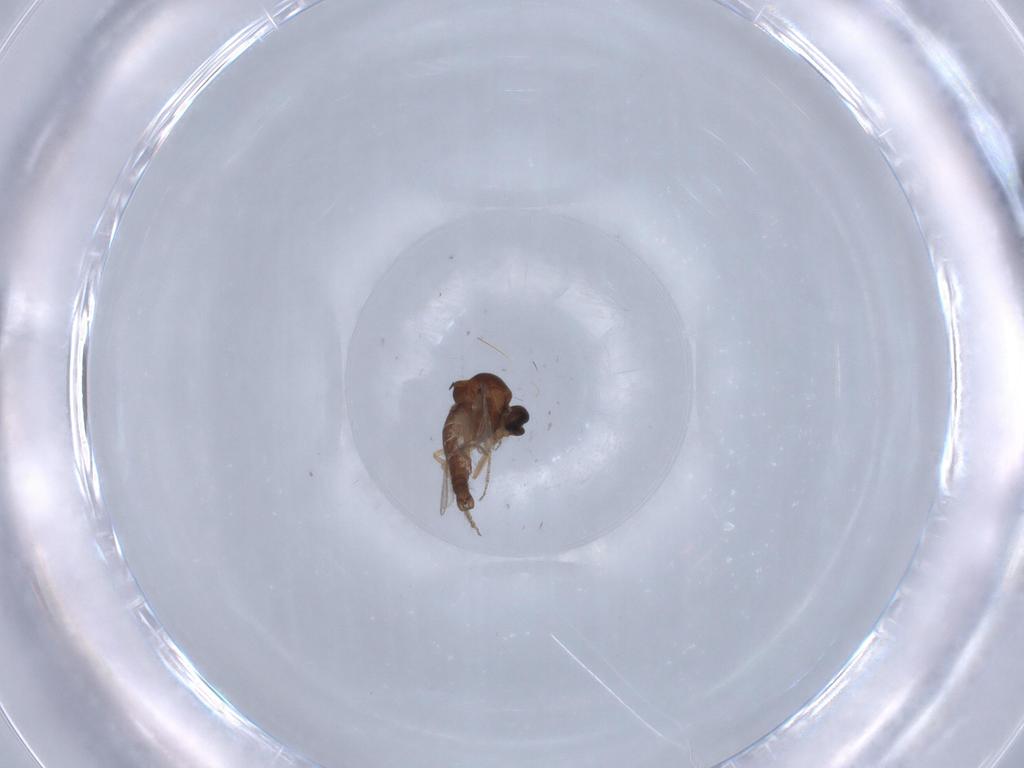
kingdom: Animalia
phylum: Arthropoda
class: Insecta
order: Diptera
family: Ceratopogonidae
